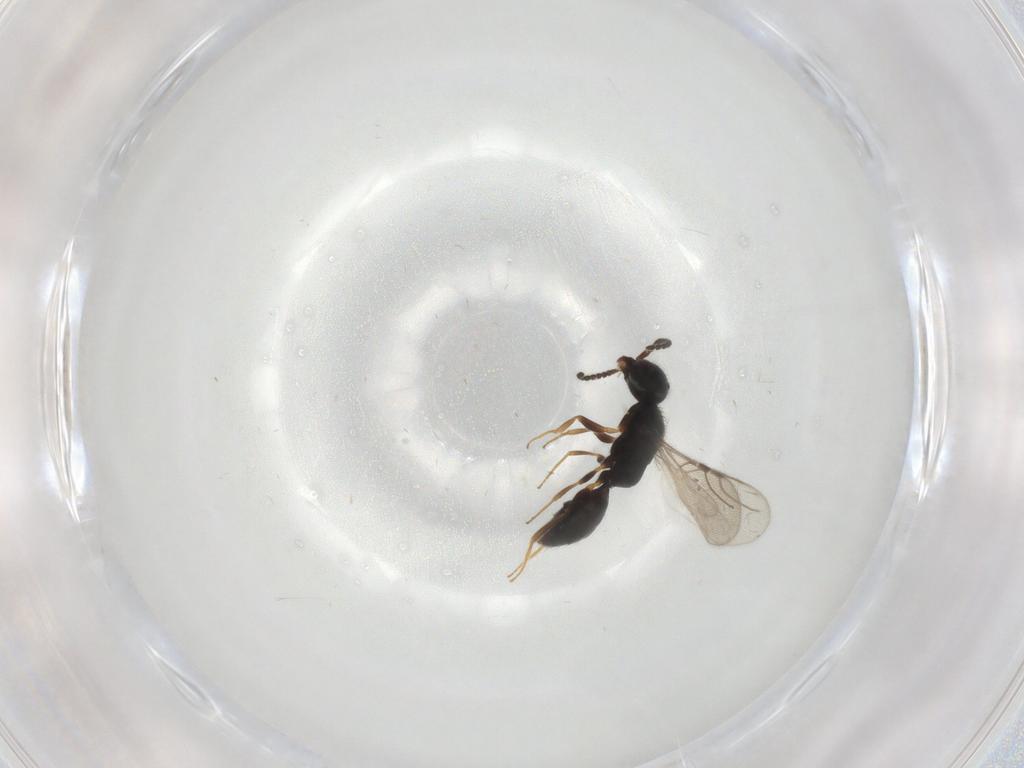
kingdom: Animalia
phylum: Arthropoda
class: Insecta
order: Hymenoptera
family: Bethylidae
